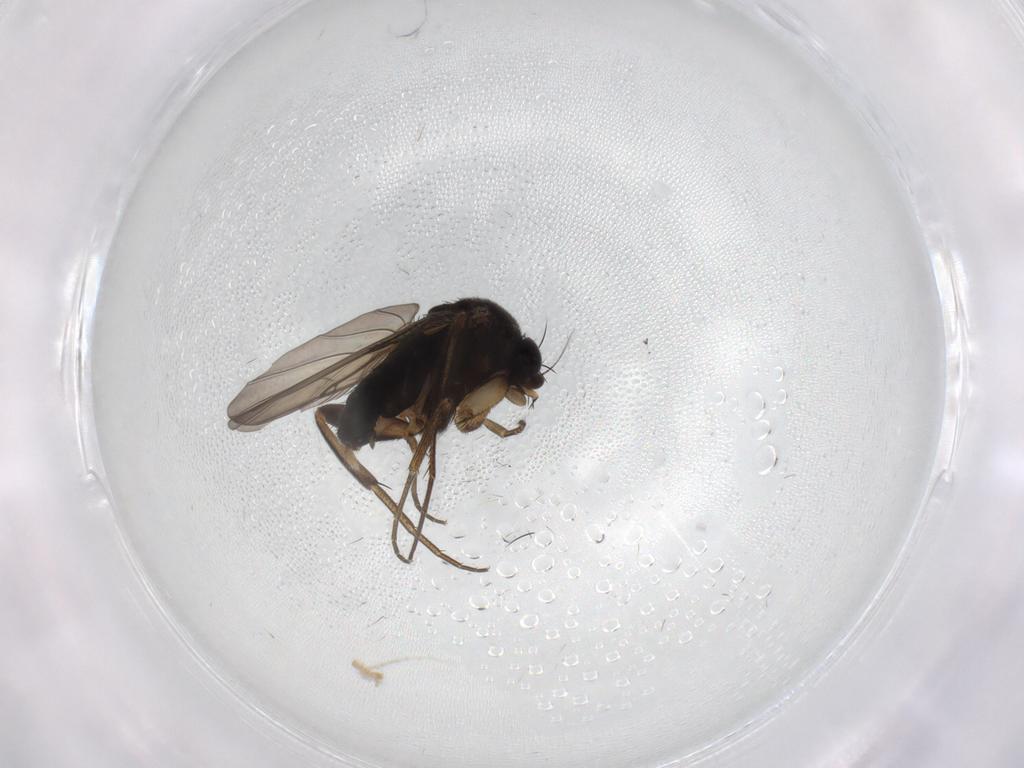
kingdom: Animalia
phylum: Arthropoda
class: Insecta
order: Diptera
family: Phoridae
